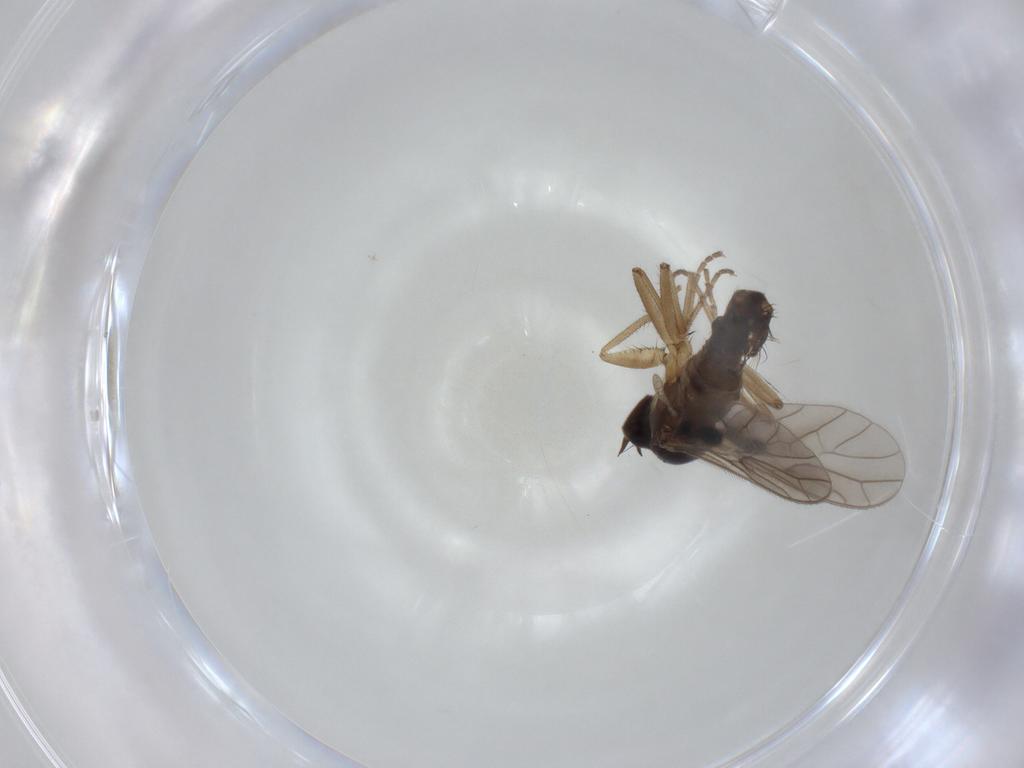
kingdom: Animalia
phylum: Arthropoda
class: Insecta
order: Diptera
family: Empididae
